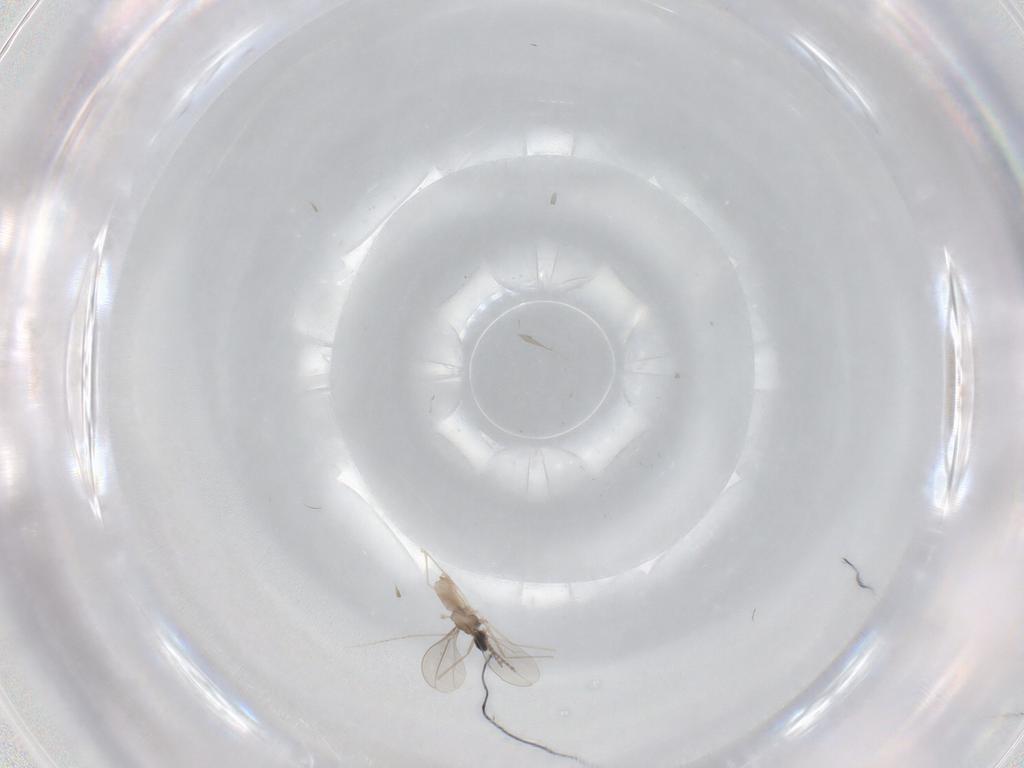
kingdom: Animalia
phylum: Arthropoda
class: Insecta
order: Diptera
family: Cecidomyiidae
